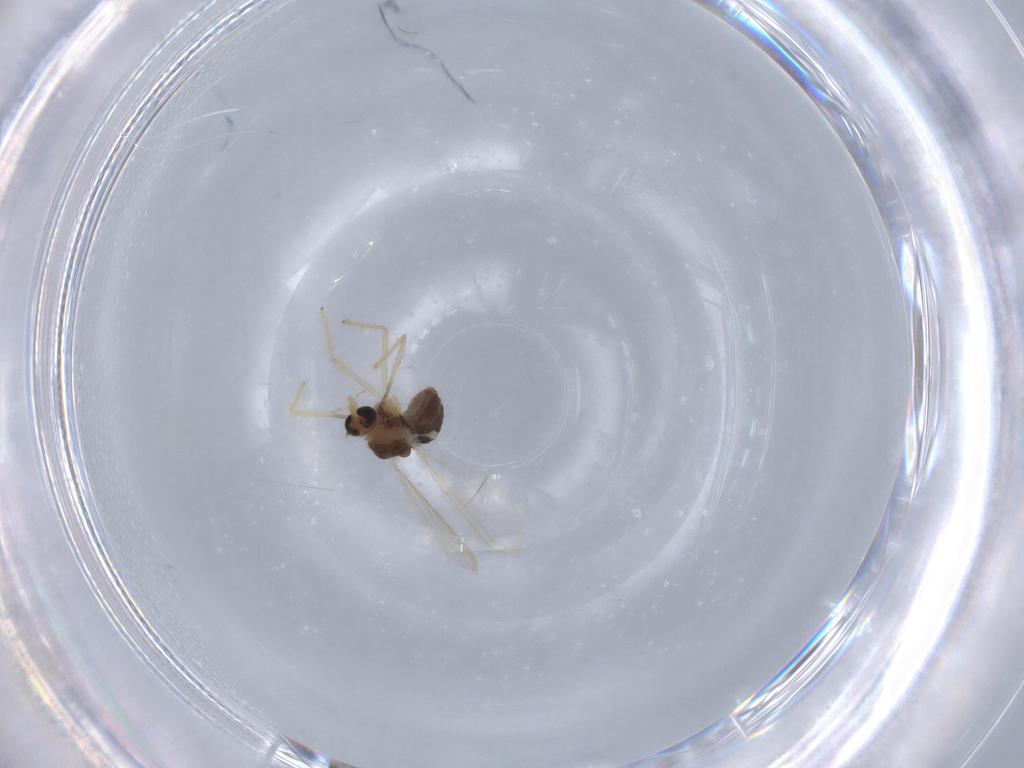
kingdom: Animalia
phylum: Arthropoda
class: Insecta
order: Diptera
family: Chironomidae
